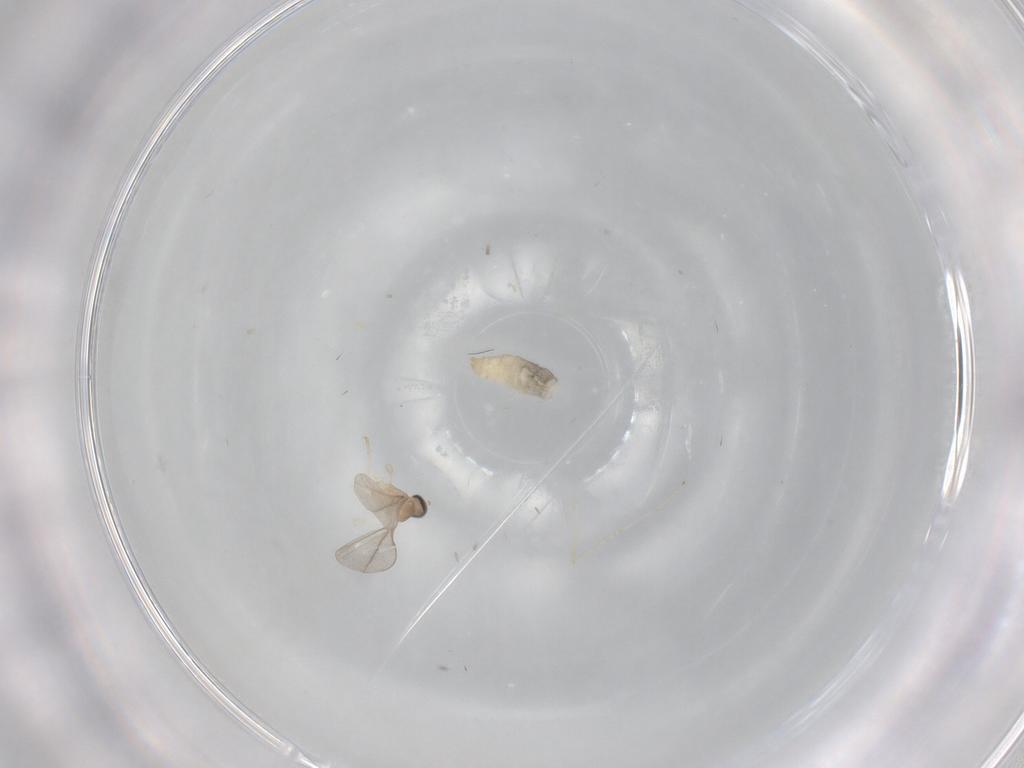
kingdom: Animalia
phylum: Arthropoda
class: Insecta
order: Diptera
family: Cecidomyiidae
